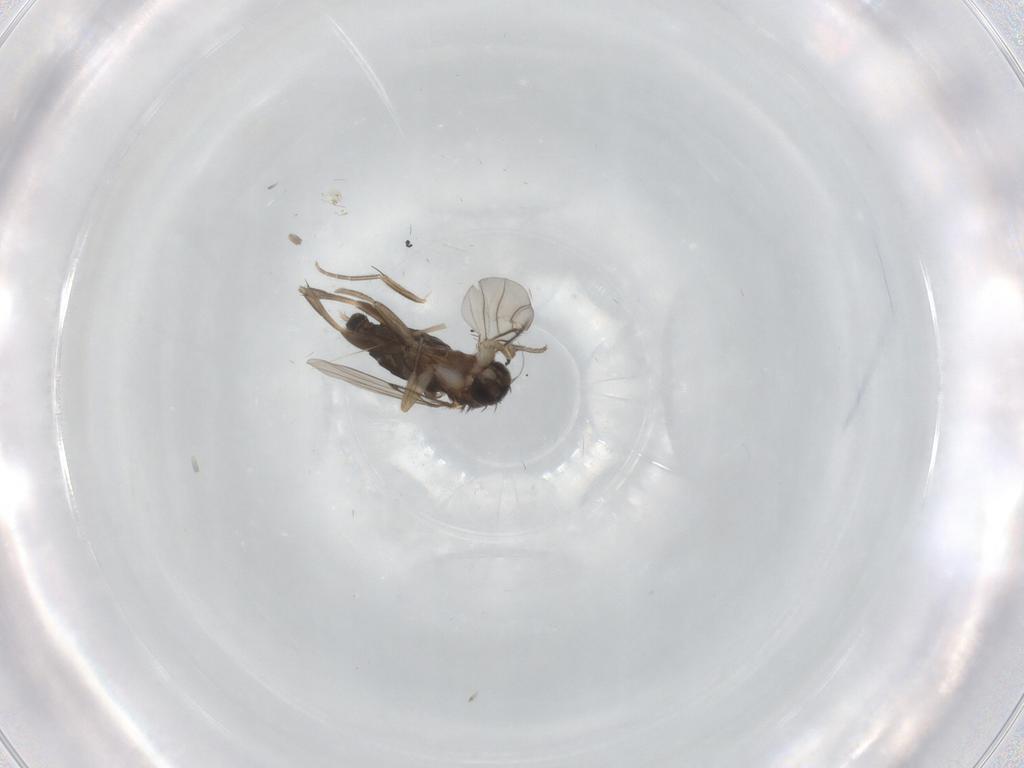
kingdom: Animalia
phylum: Arthropoda
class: Insecta
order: Diptera
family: Phoridae
